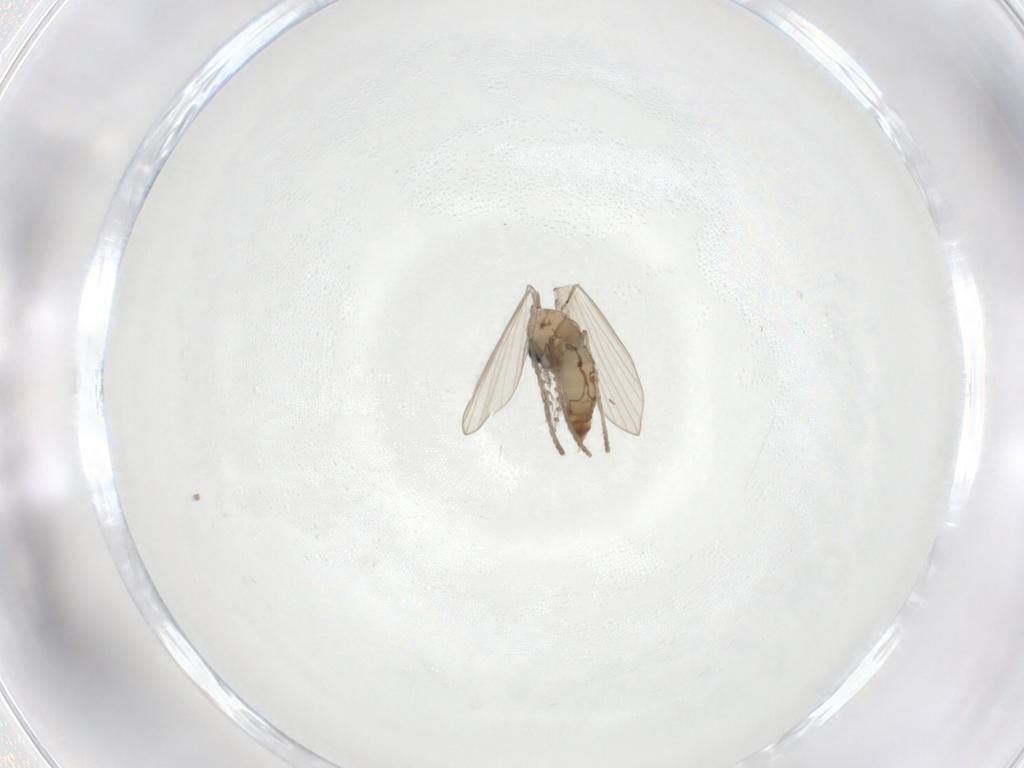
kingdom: Animalia
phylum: Arthropoda
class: Insecta
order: Diptera
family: Psychodidae
